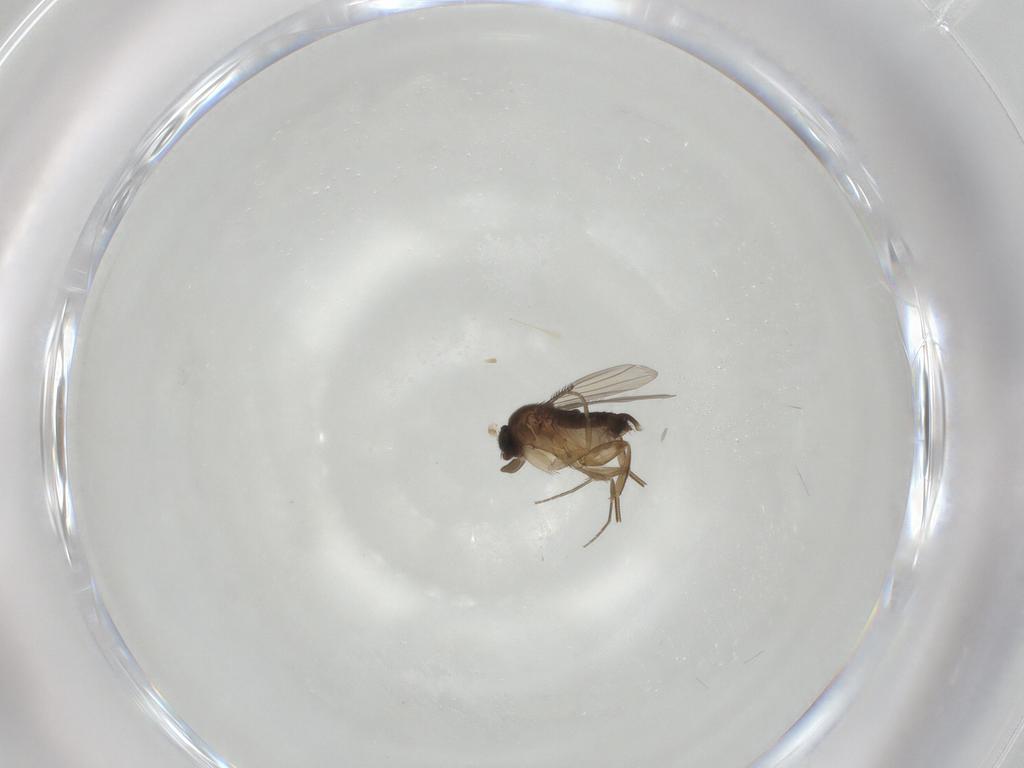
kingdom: Animalia
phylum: Arthropoda
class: Insecta
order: Diptera
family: Phoridae
